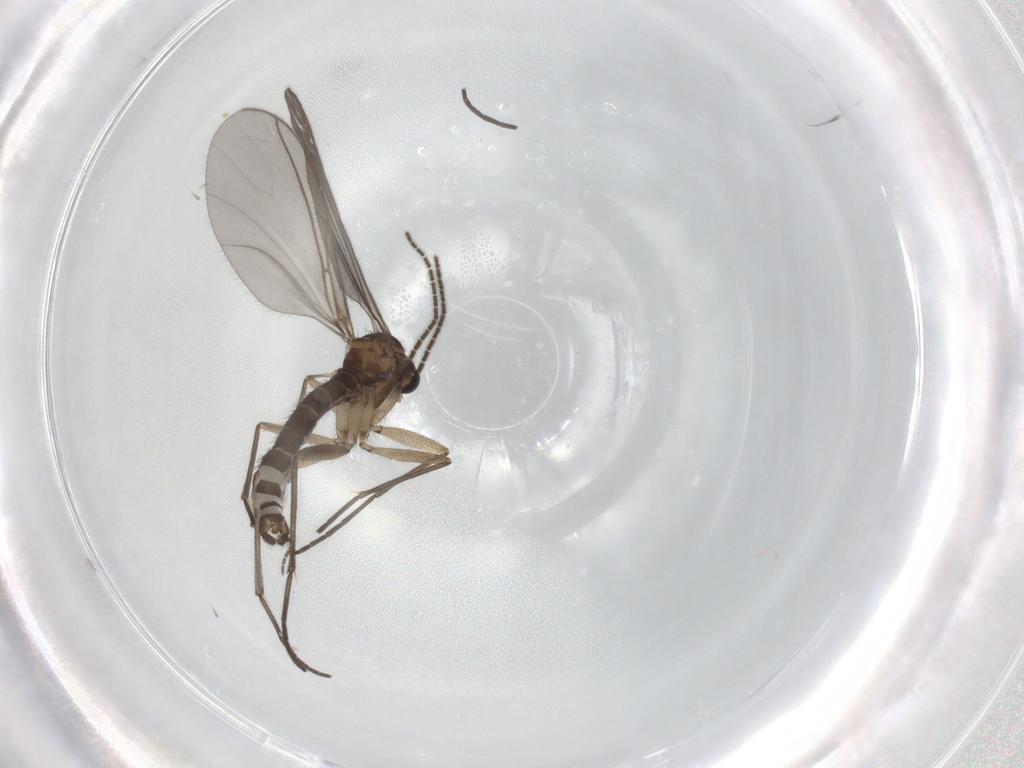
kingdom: Animalia
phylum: Arthropoda
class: Insecta
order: Diptera
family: Sciaridae
